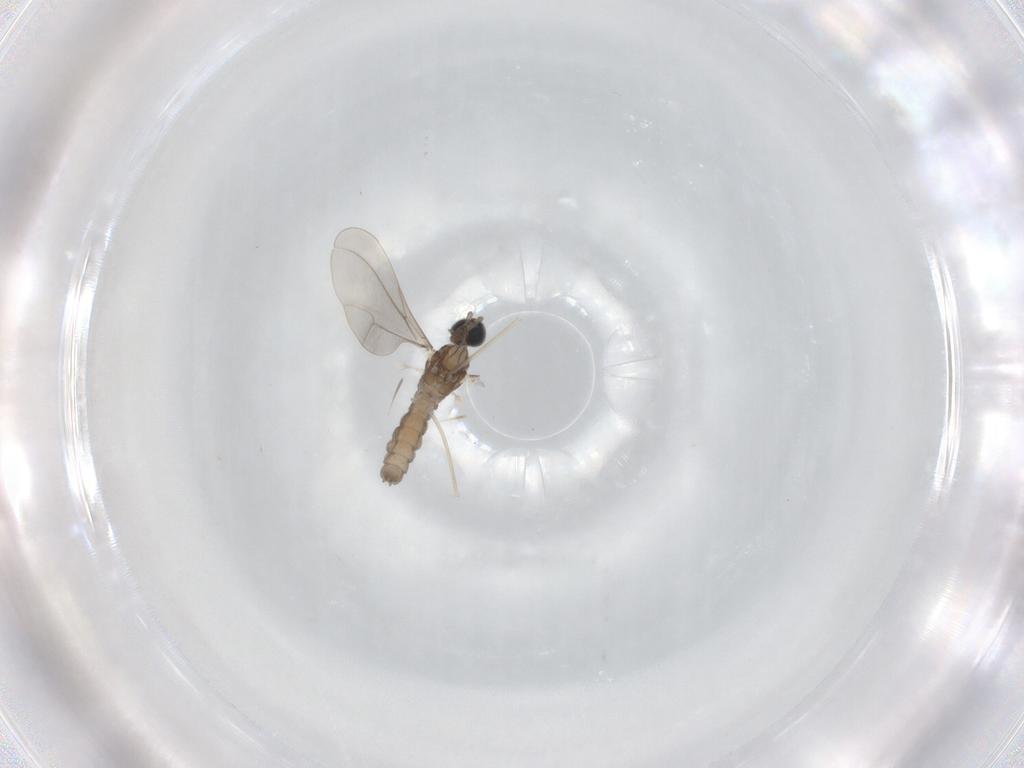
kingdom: Animalia
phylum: Arthropoda
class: Insecta
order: Diptera
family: Cecidomyiidae
